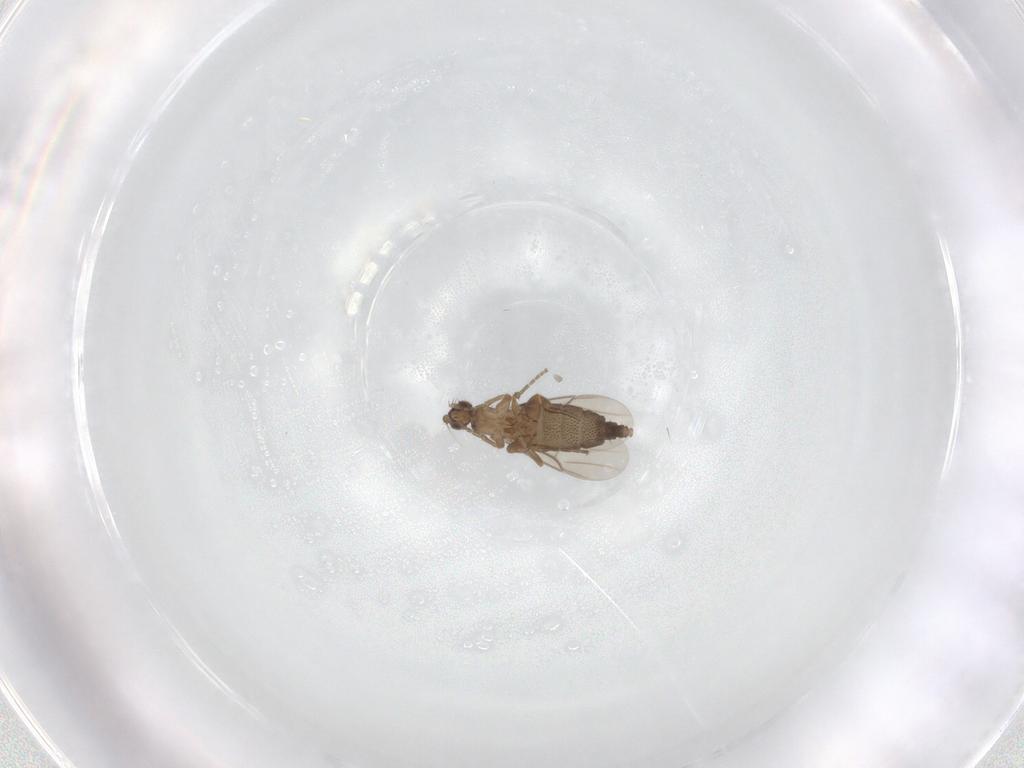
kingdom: Animalia
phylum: Arthropoda
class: Insecta
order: Diptera
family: Phoridae
